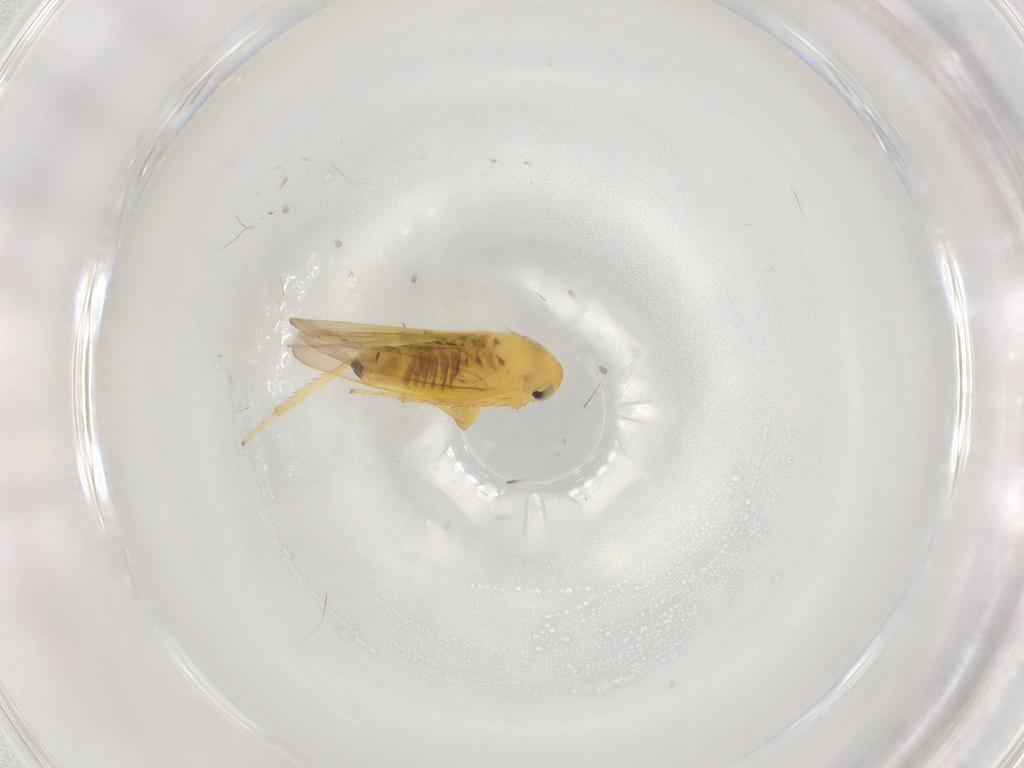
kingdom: Animalia
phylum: Arthropoda
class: Insecta
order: Hemiptera
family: Cicadellidae
